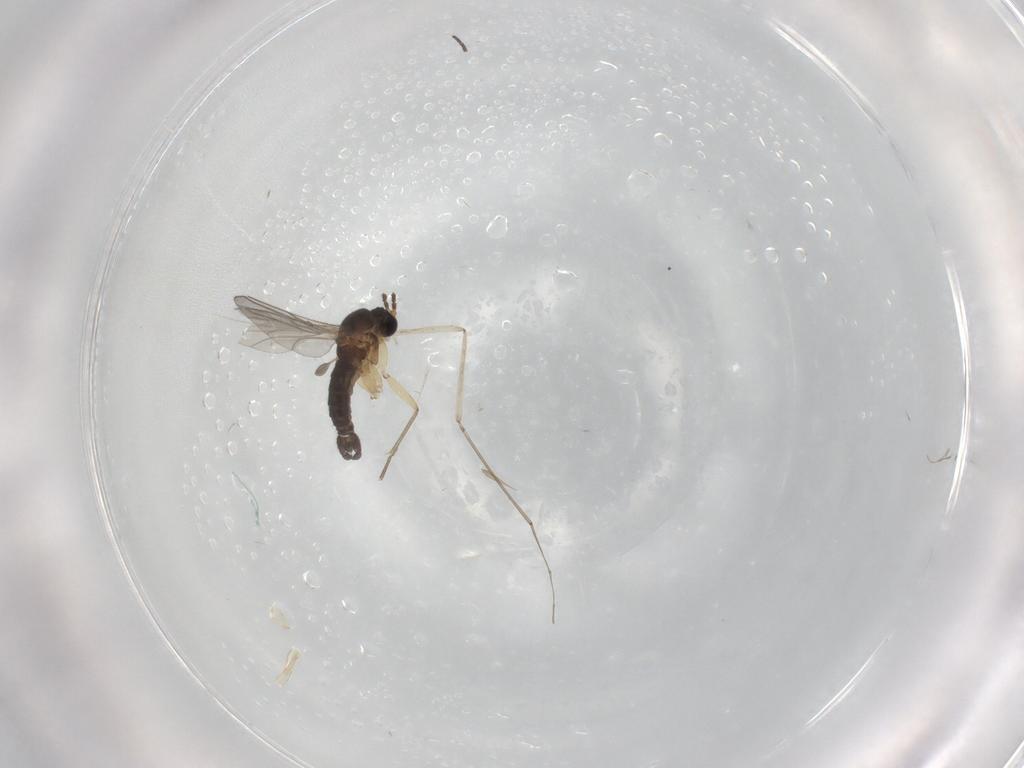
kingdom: Animalia
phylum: Arthropoda
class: Insecta
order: Diptera
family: Cecidomyiidae
